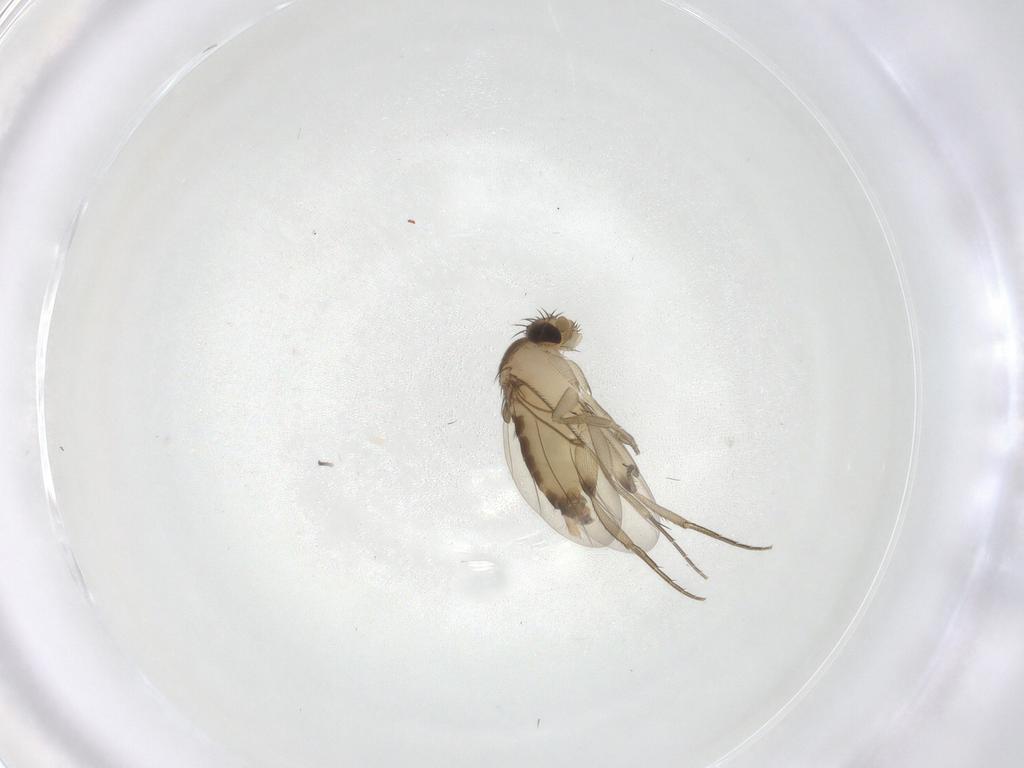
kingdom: Animalia
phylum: Arthropoda
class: Insecta
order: Diptera
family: Phoridae
